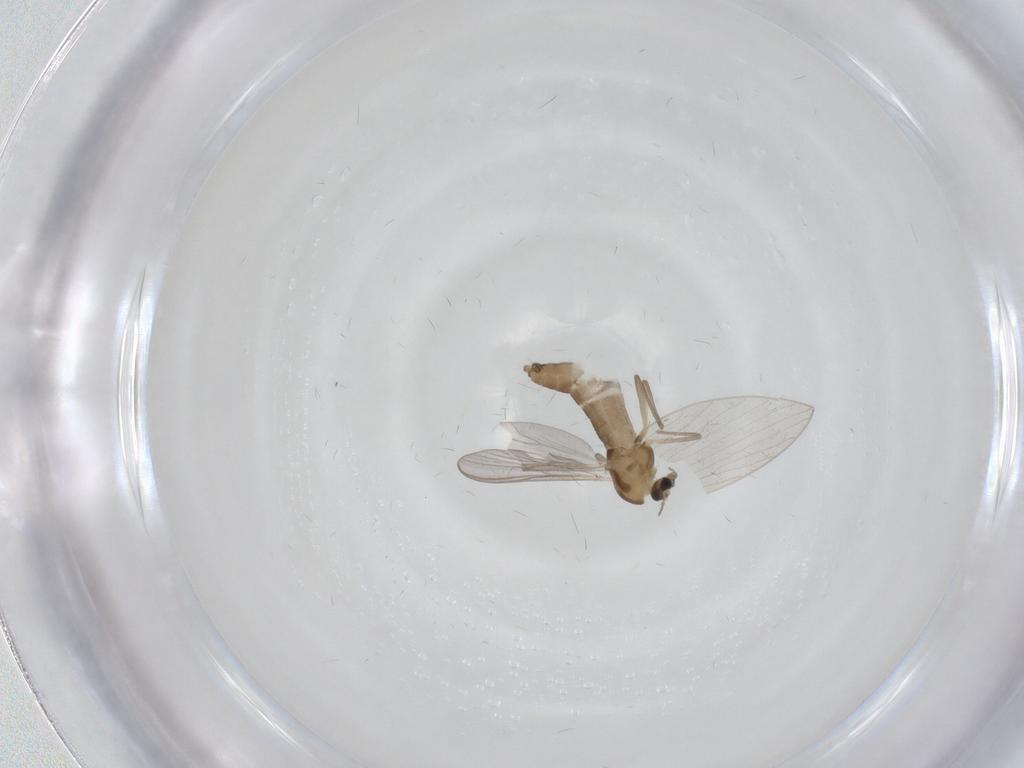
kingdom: Animalia
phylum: Arthropoda
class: Insecta
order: Diptera
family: Chironomidae
